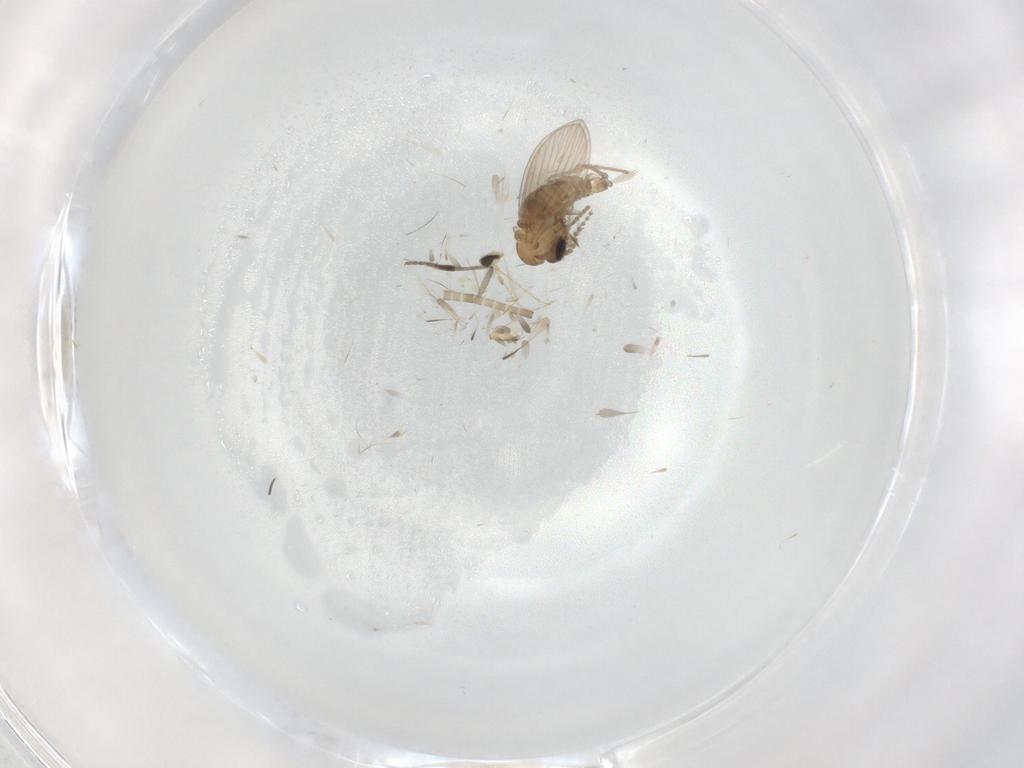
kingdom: Animalia
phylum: Arthropoda
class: Insecta
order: Diptera
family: Psychodidae
